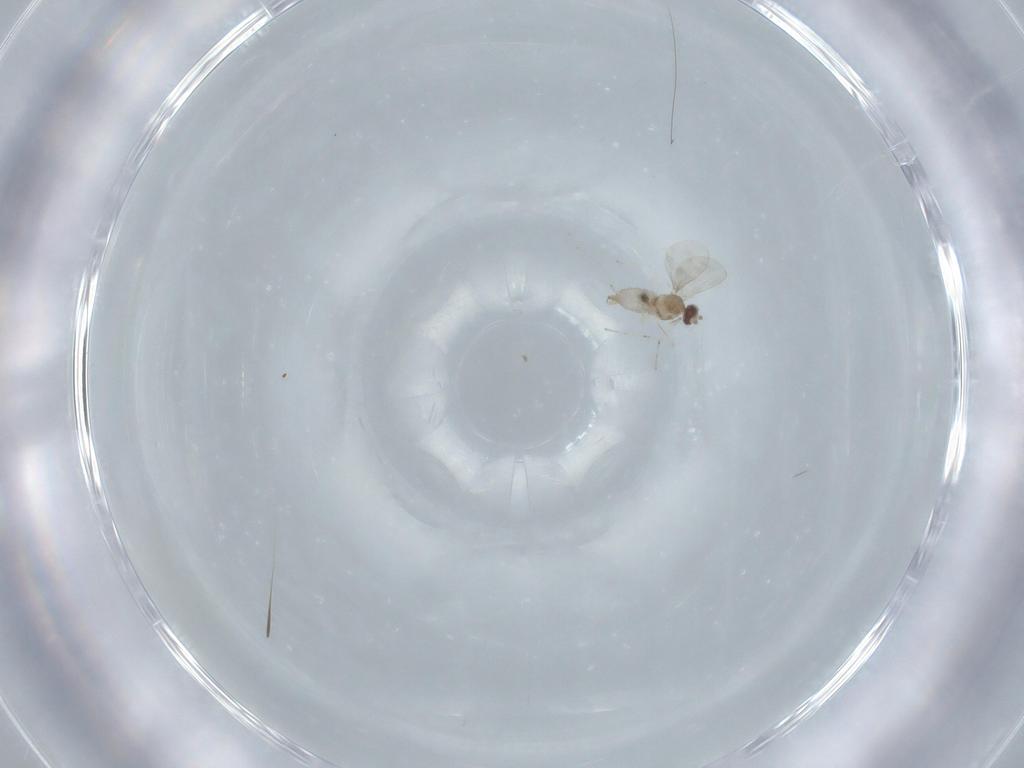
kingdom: Animalia
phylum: Arthropoda
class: Insecta
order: Diptera
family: Cecidomyiidae
